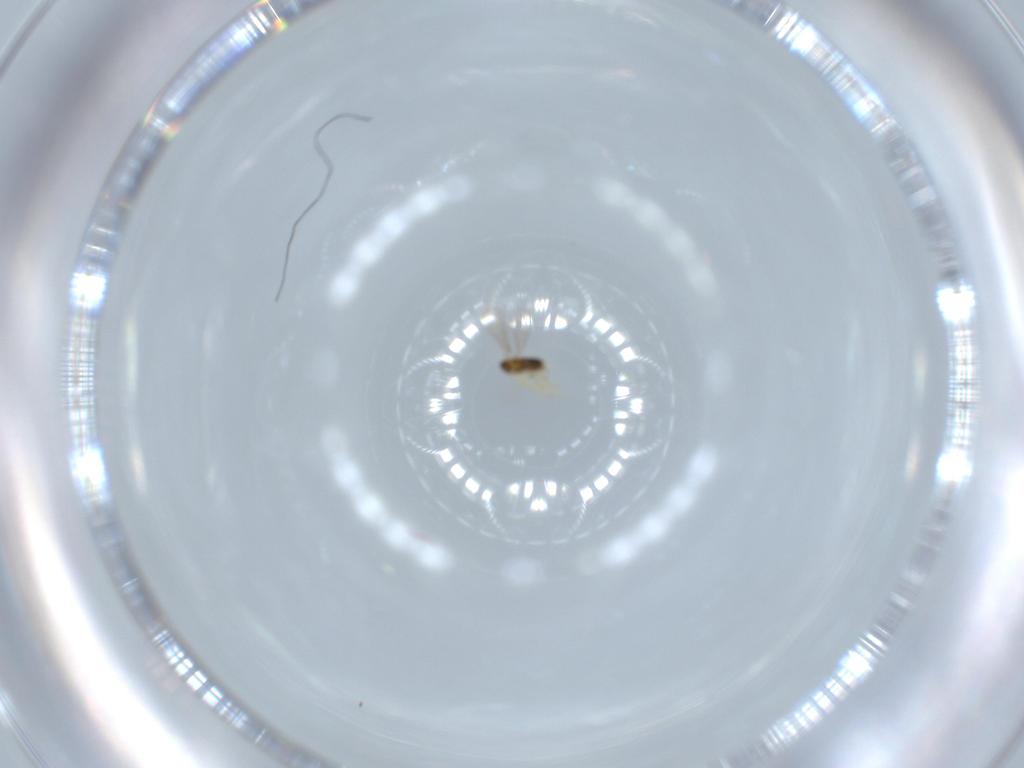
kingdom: Animalia
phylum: Arthropoda
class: Insecta
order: Hymenoptera
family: Aphelinidae
